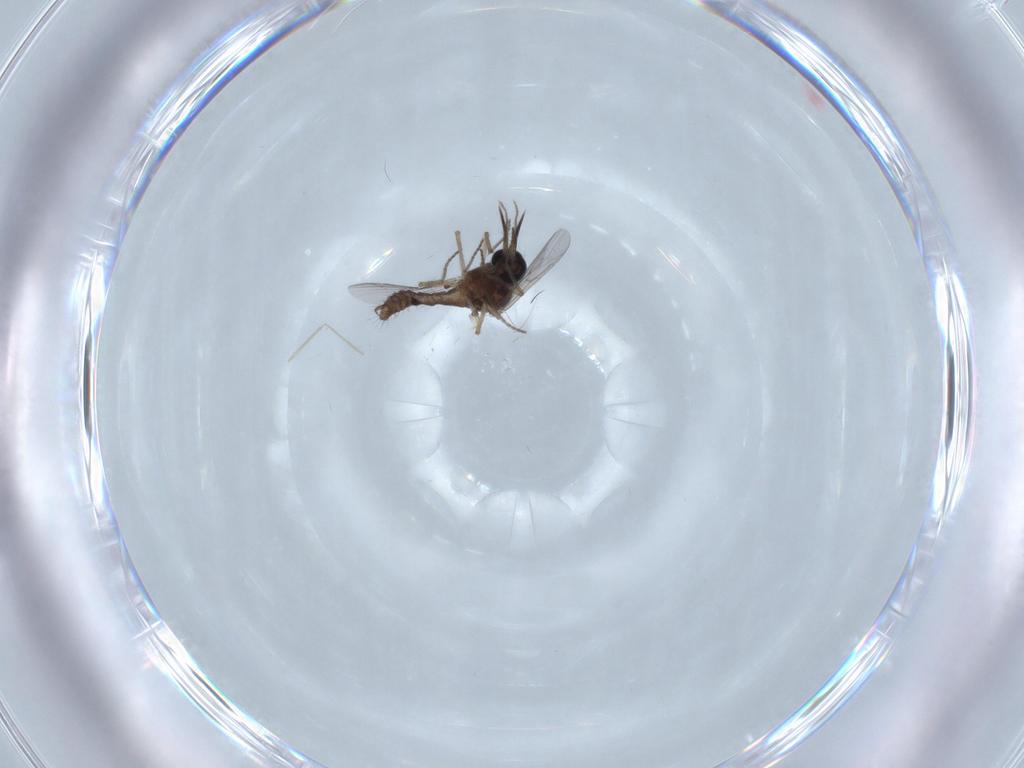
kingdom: Animalia
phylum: Arthropoda
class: Insecta
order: Diptera
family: Ceratopogonidae
